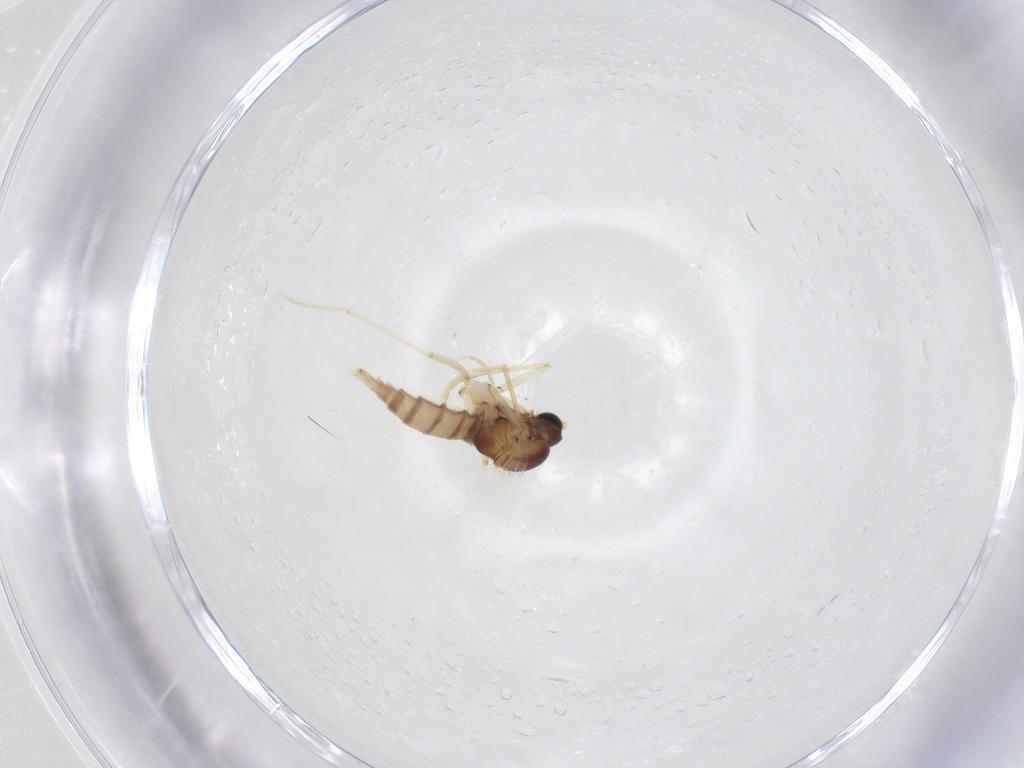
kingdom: Animalia
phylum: Arthropoda
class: Insecta
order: Diptera
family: Sciaridae
